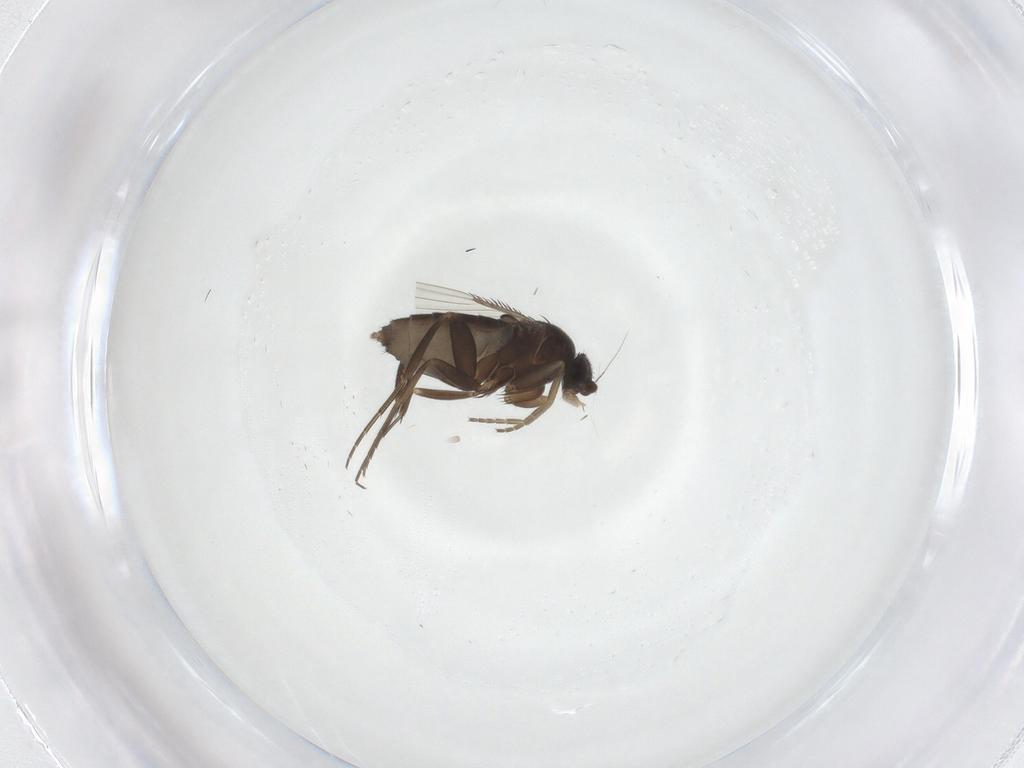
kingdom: Animalia
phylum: Arthropoda
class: Insecta
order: Diptera
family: Phoridae
